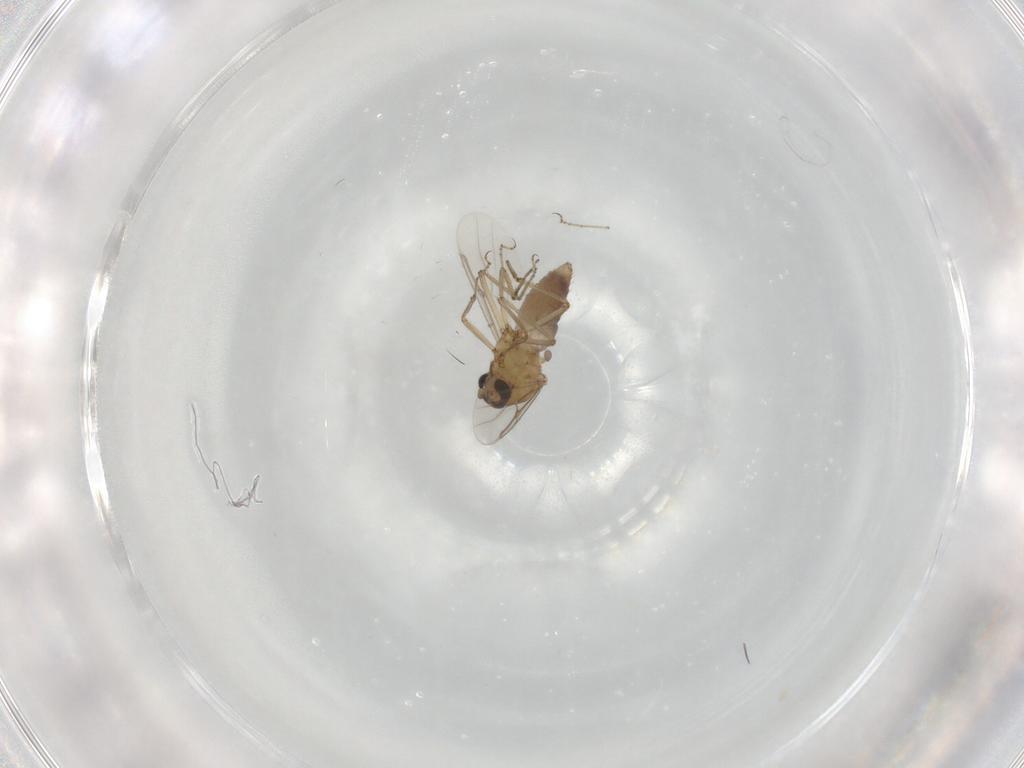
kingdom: Animalia
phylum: Arthropoda
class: Insecta
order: Diptera
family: Ceratopogonidae
